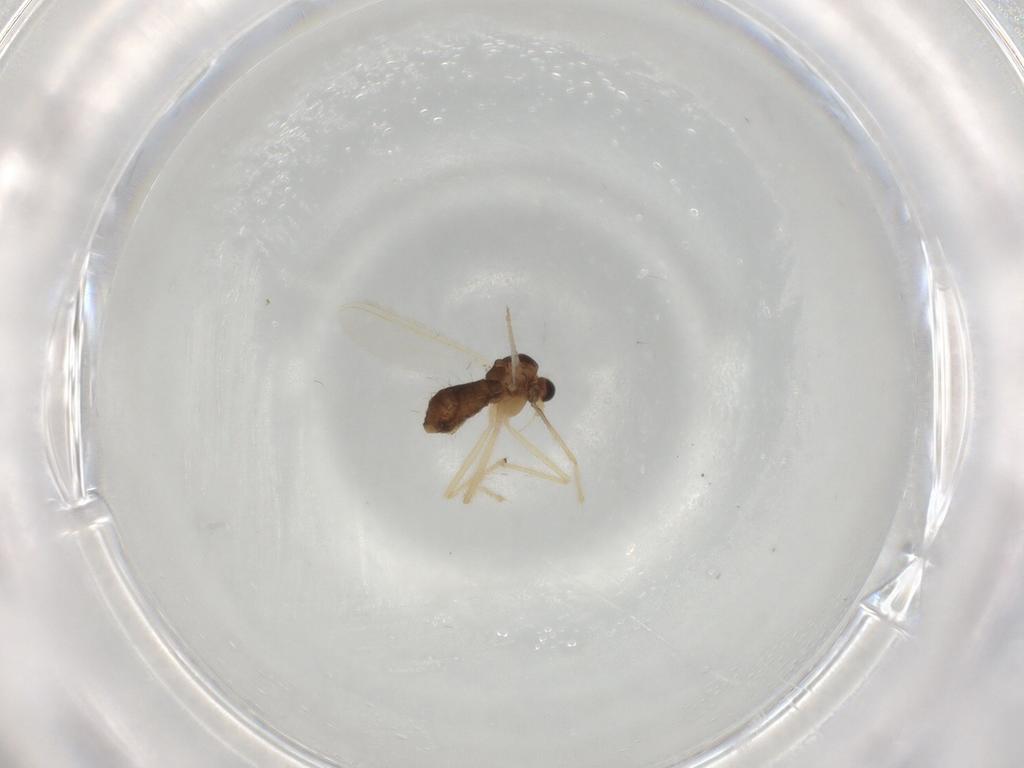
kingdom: Animalia
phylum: Arthropoda
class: Insecta
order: Diptera
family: Chironomidae
